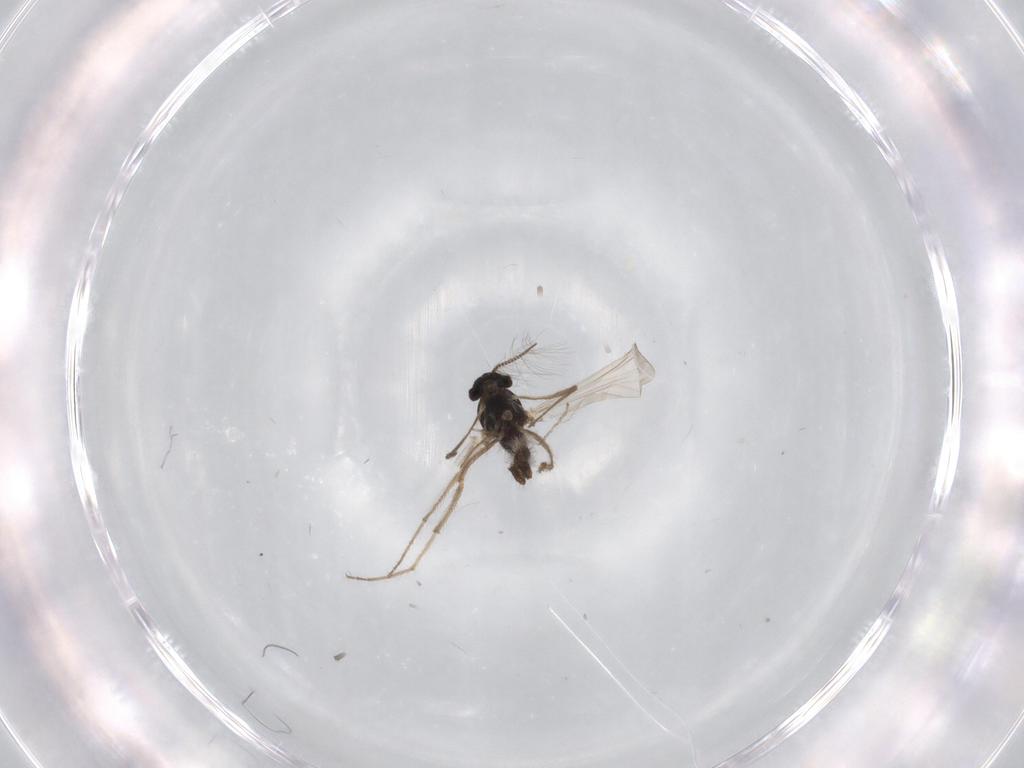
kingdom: Animalia
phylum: Arthropoda
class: Insecta
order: Diptera
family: Chironomidae
